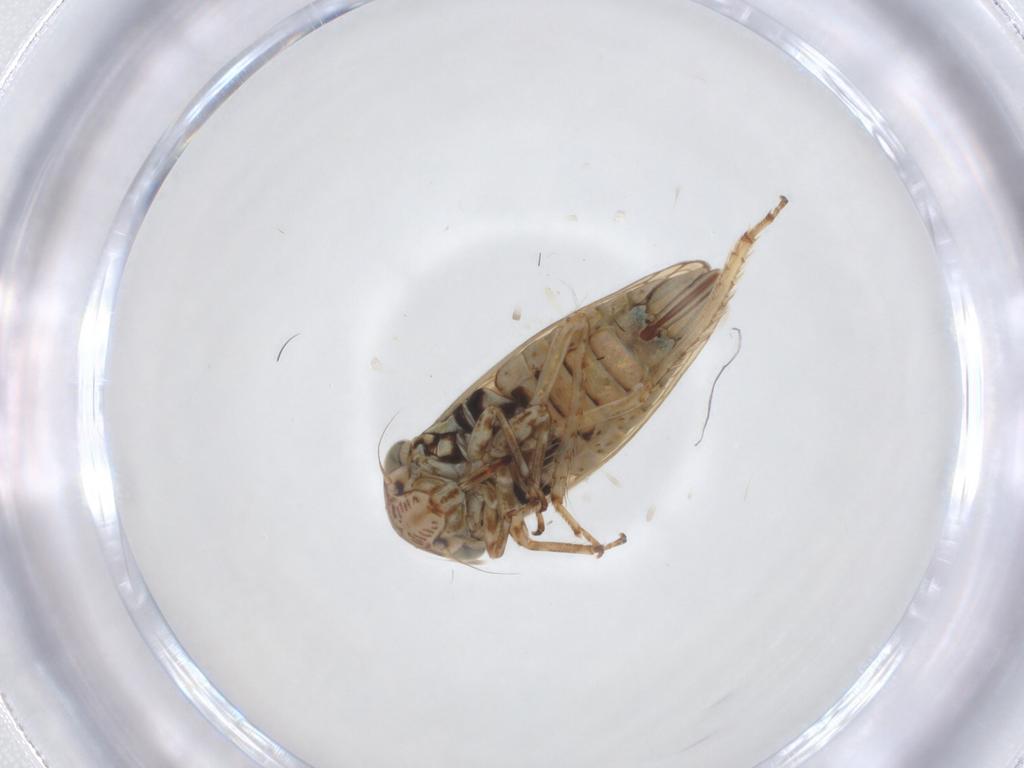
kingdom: Animalia
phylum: Arthropoda
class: Insecta
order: Hemiptera
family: Cicadellidae
